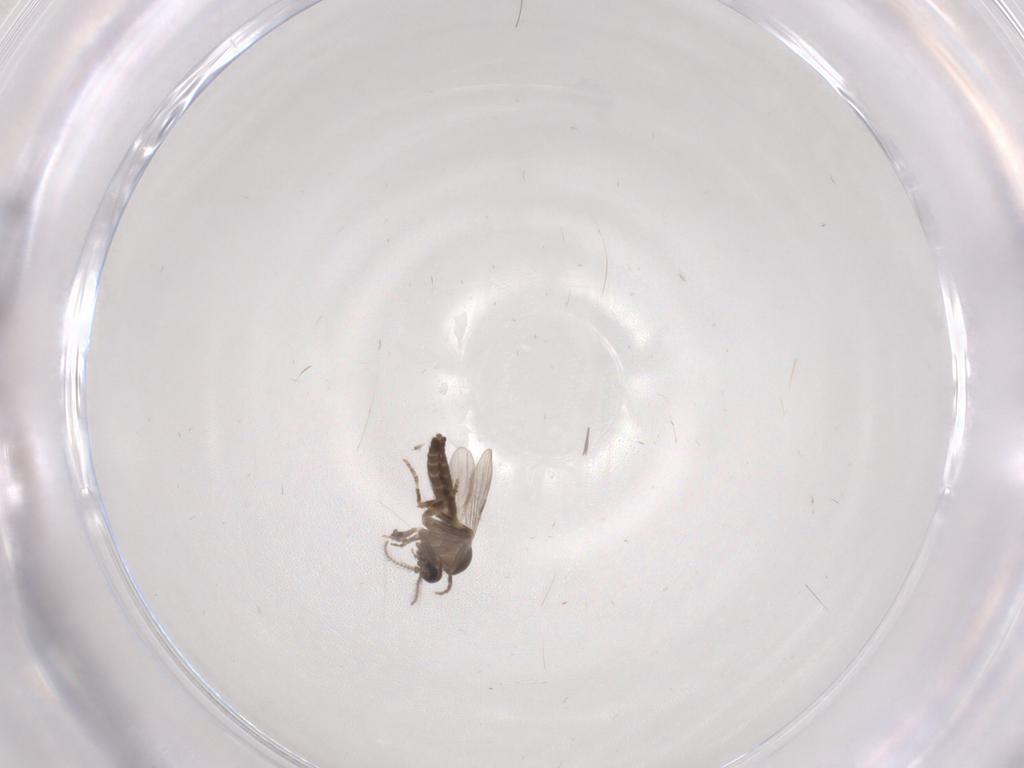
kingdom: Animalia
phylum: Arthropoda
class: Insecta
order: Diptera
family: Ceratopogonidae
